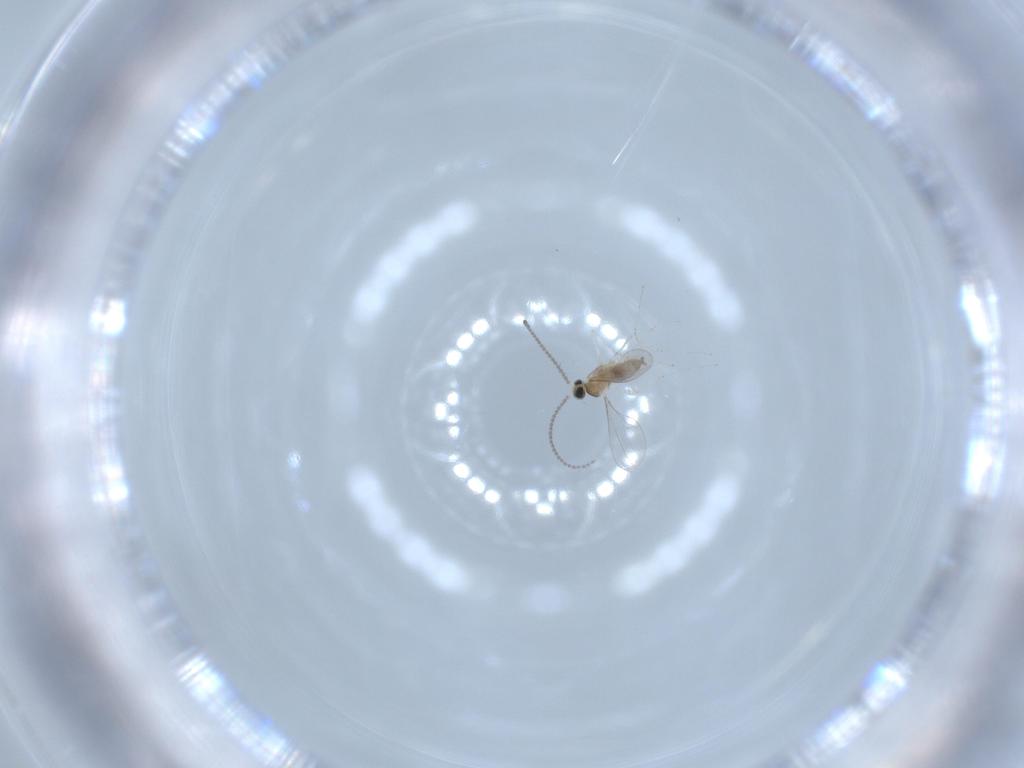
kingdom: Animalia
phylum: Arthropoda
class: Insecta
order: Diptera
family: Cecidomyiidae
